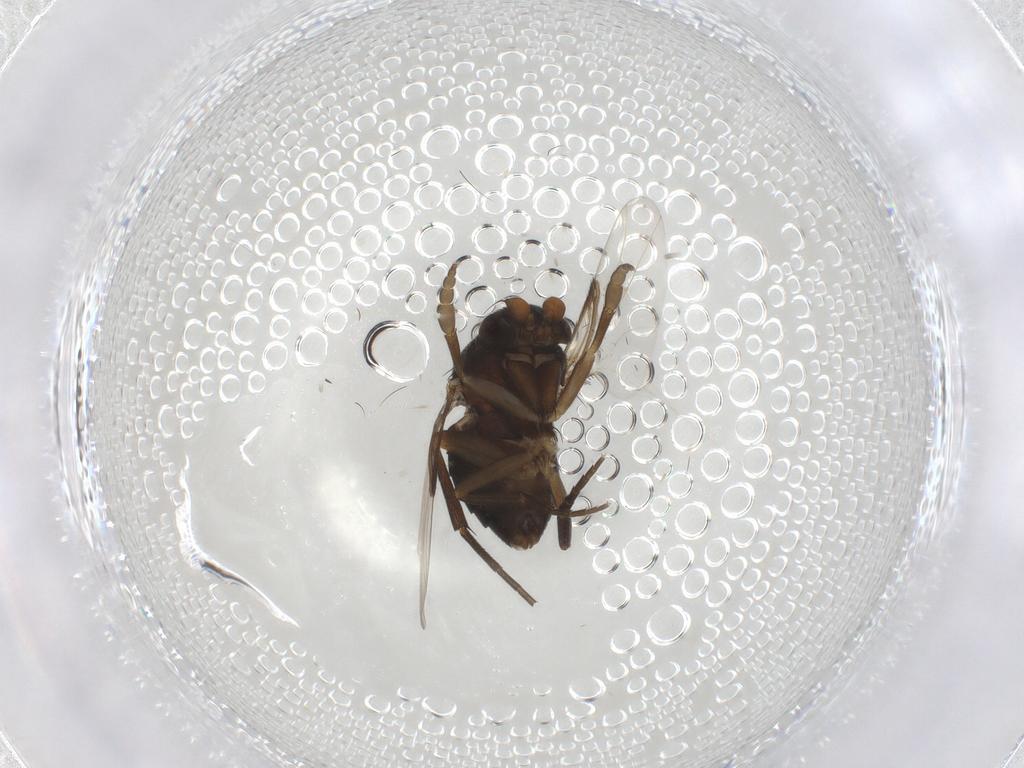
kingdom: Animalia
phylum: Arthropoda
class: Insecta
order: Diptera
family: Phoridae
